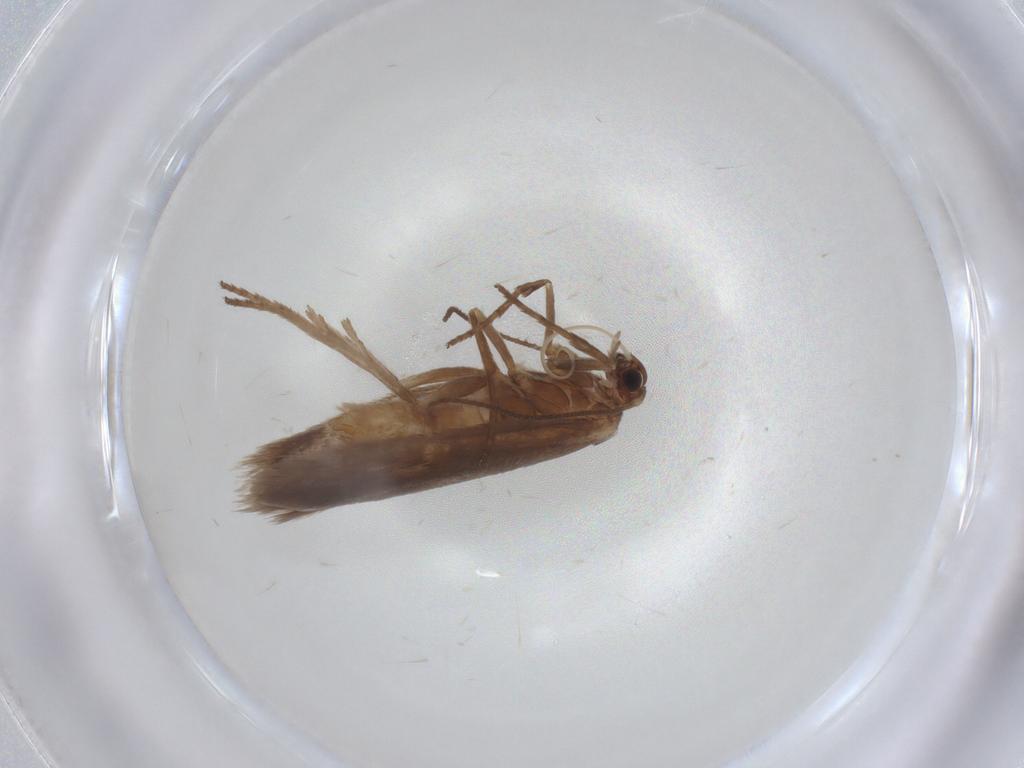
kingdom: Animalia
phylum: Arthropoda
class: Insecta
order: Lepidoptera
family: Limacodidae
